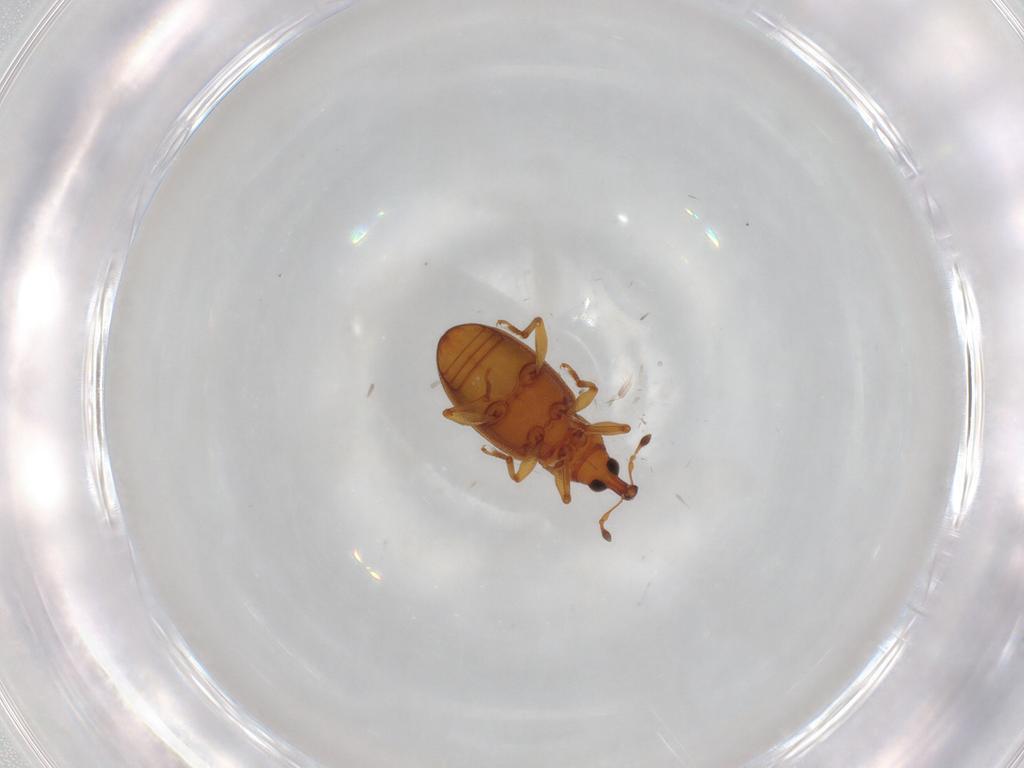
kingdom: Animalia
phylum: Arthropoda
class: Insecta
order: Coleoptera
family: Curculionidae
